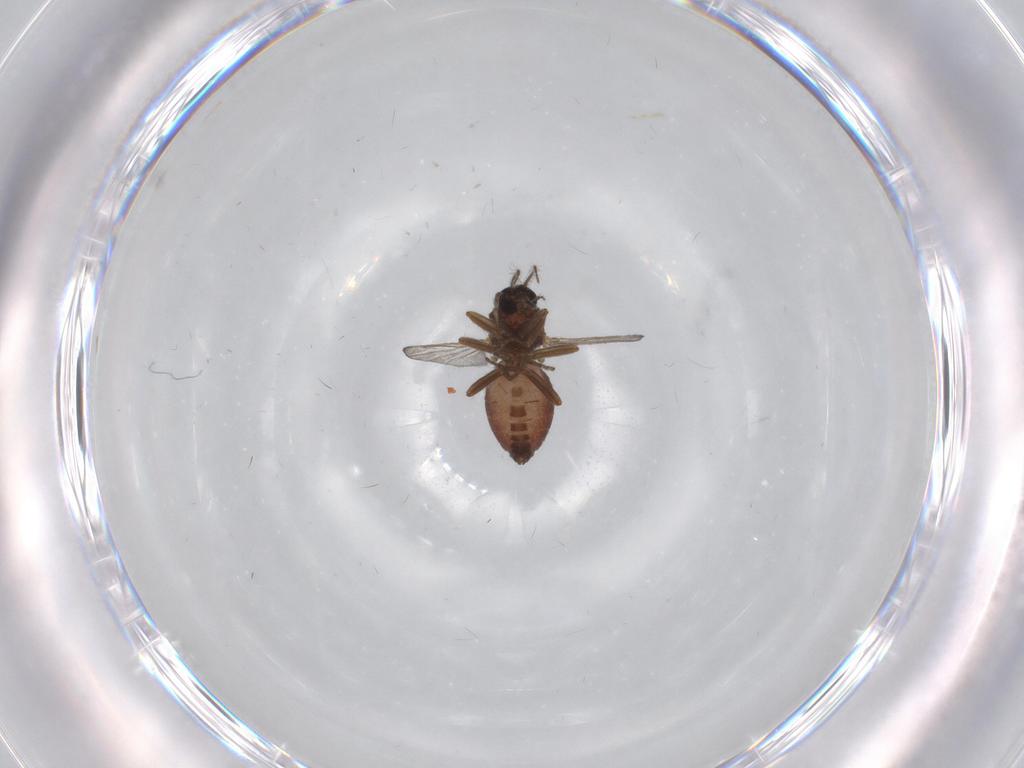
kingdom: Animalia
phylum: Arthropoda
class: Insecta
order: Diptera
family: Ceratopogonidae
